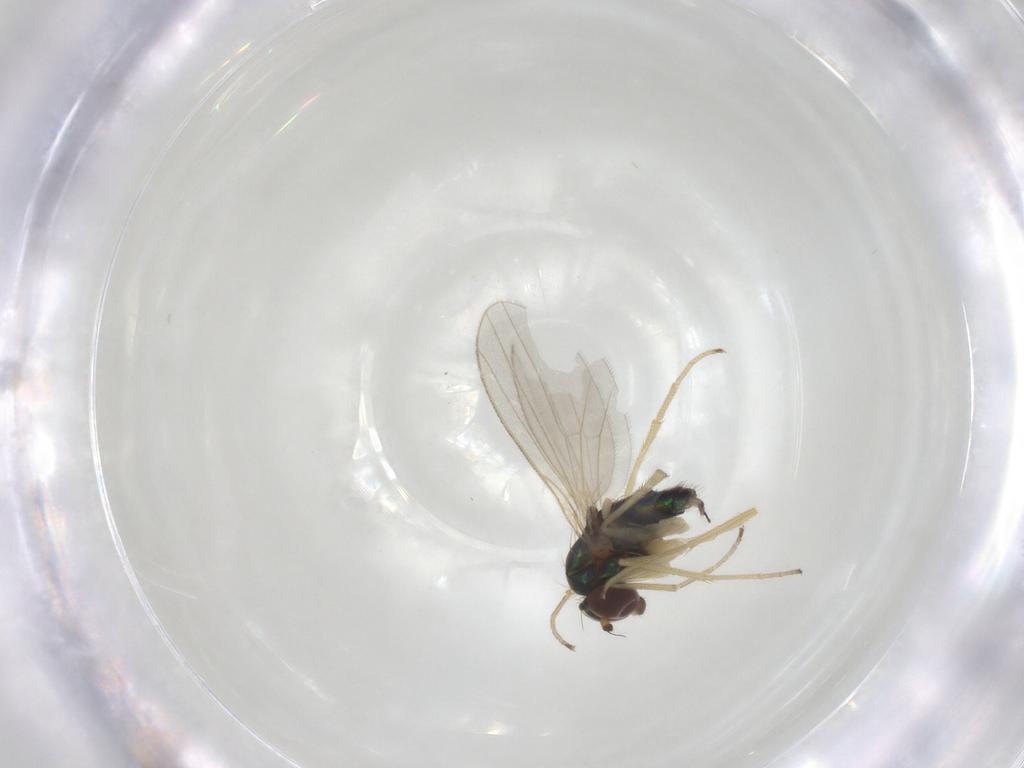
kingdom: Animalia
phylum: Arthropoda
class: Insecta
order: Diptera
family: Dolichopodidae
